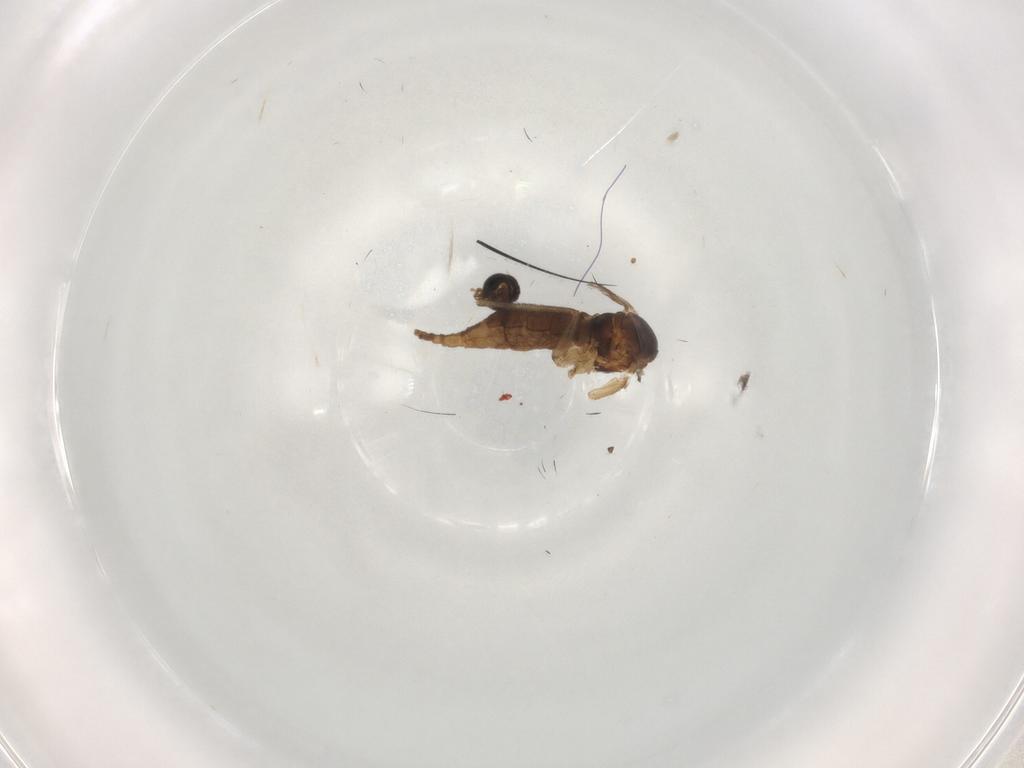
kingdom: Animalia
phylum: Arthropoda
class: Insecta
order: Diptera
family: Sciaridae
